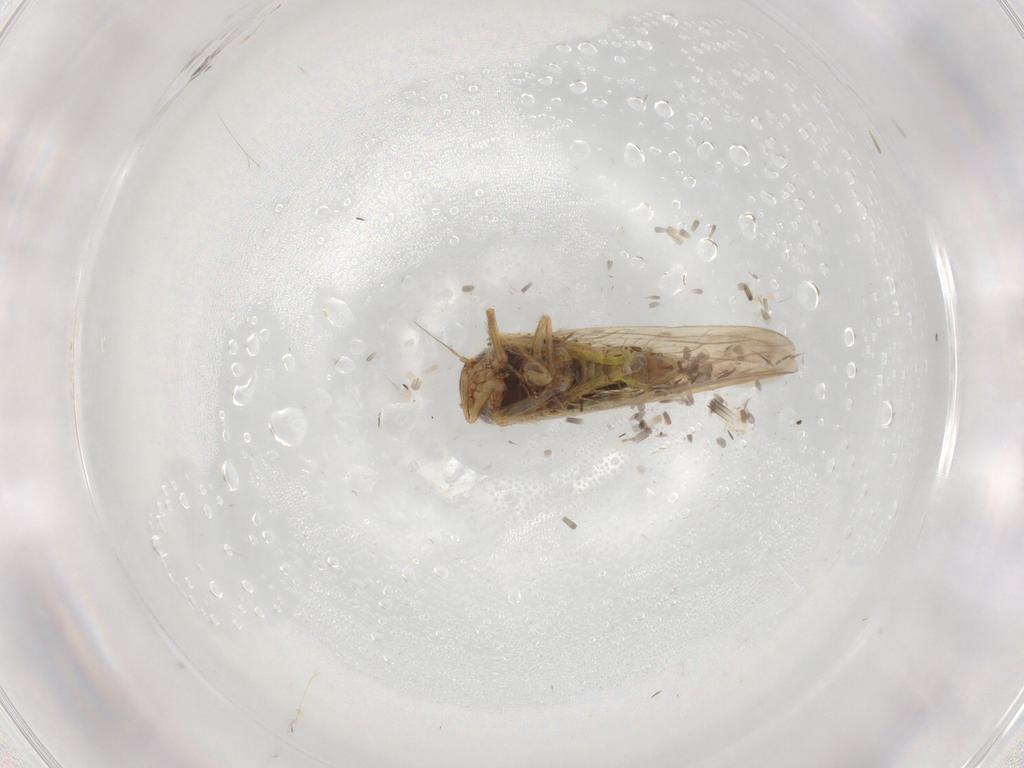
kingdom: Animalia
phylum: Arthropoda
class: Insecta
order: Hemiptera
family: Cicadellidae
